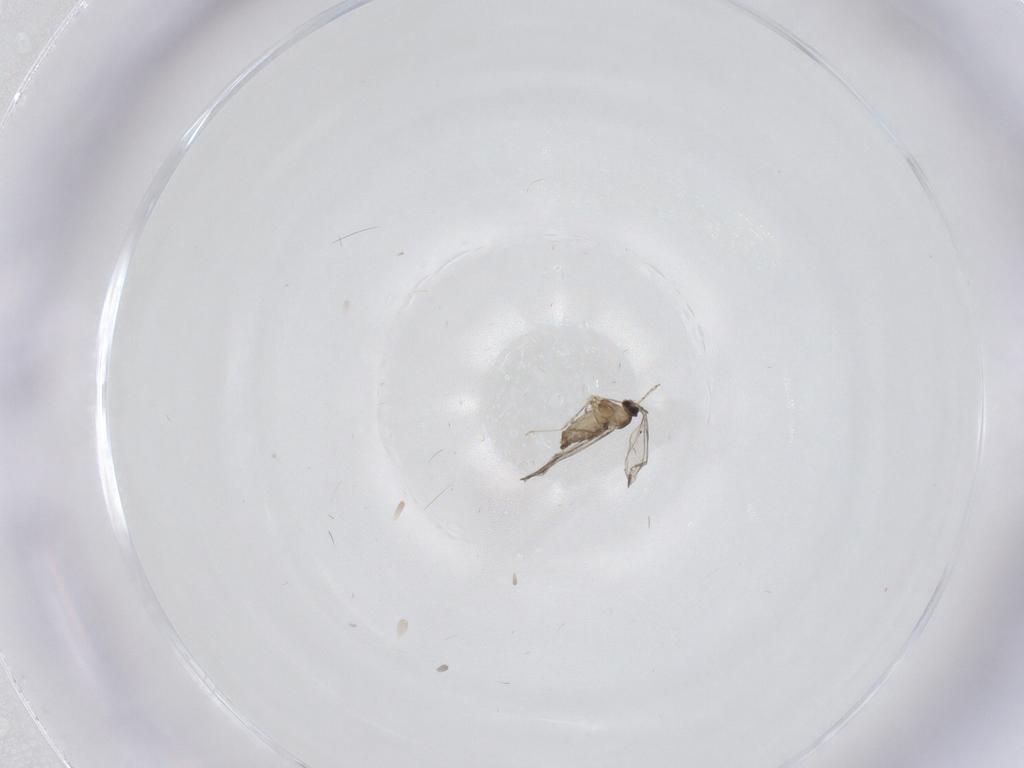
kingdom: Animalia
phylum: Arthropoda
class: Insecta
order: Diptera
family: Cecidomyiidae
